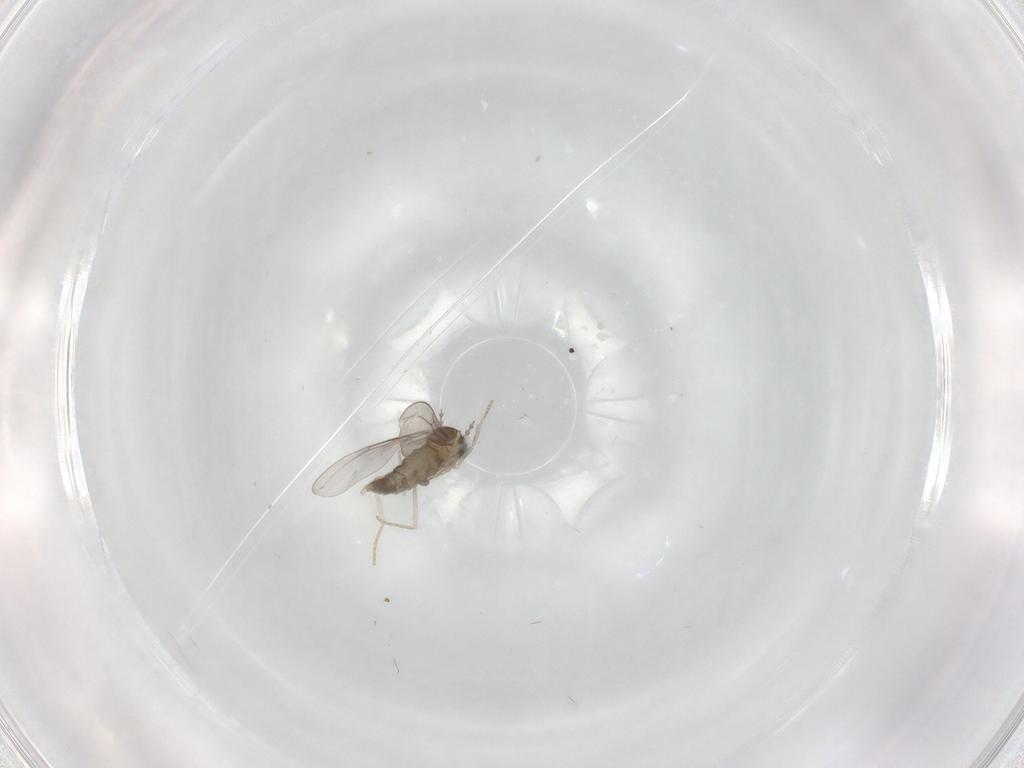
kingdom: Animalia
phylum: Arthropoda
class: Insecta
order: Diptera
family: Cecidomyiidae
